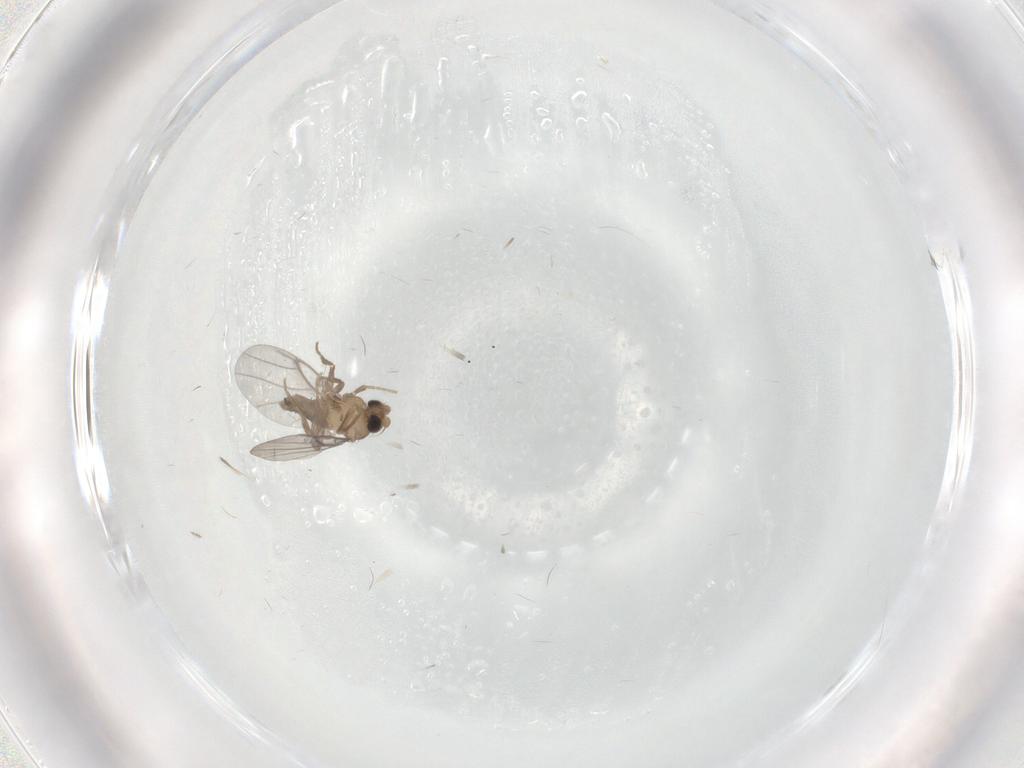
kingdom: Animalia
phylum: Arthropoda
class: Insecta
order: Diptera
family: Cecidomyiidae
